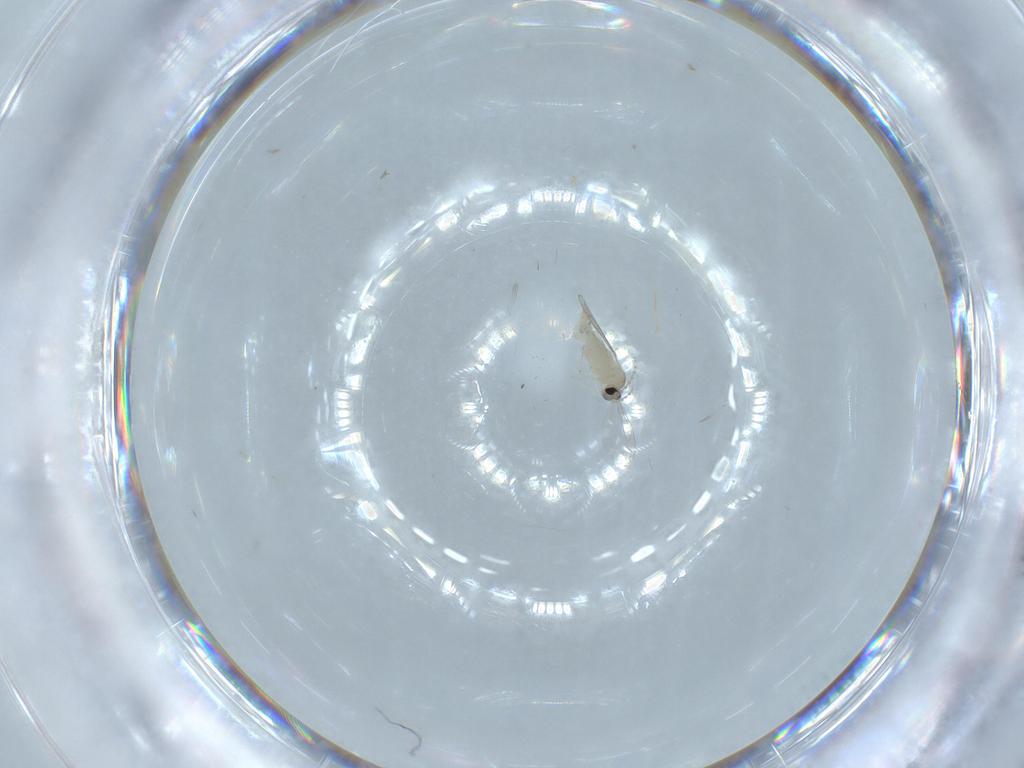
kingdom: Animalia
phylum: Arthropoda
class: Insecta
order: Diptera
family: Cecidomyiidae
